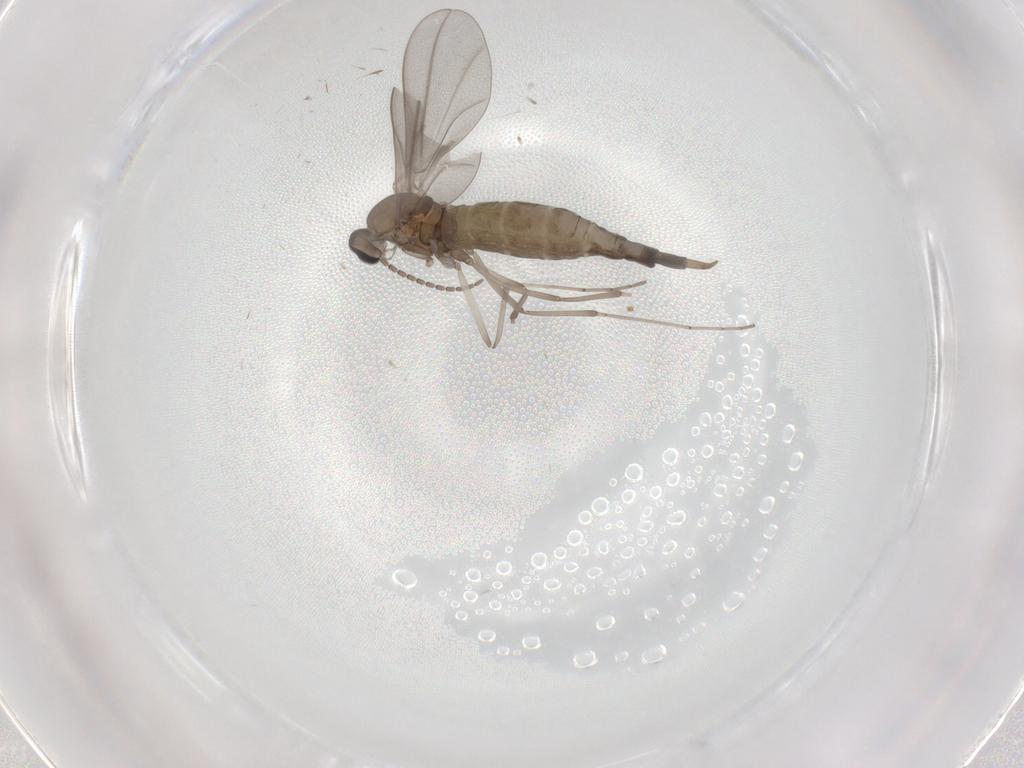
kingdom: Animalia
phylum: Arthropoda
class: Insecta
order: Diptera
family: Cecidomyiidae
